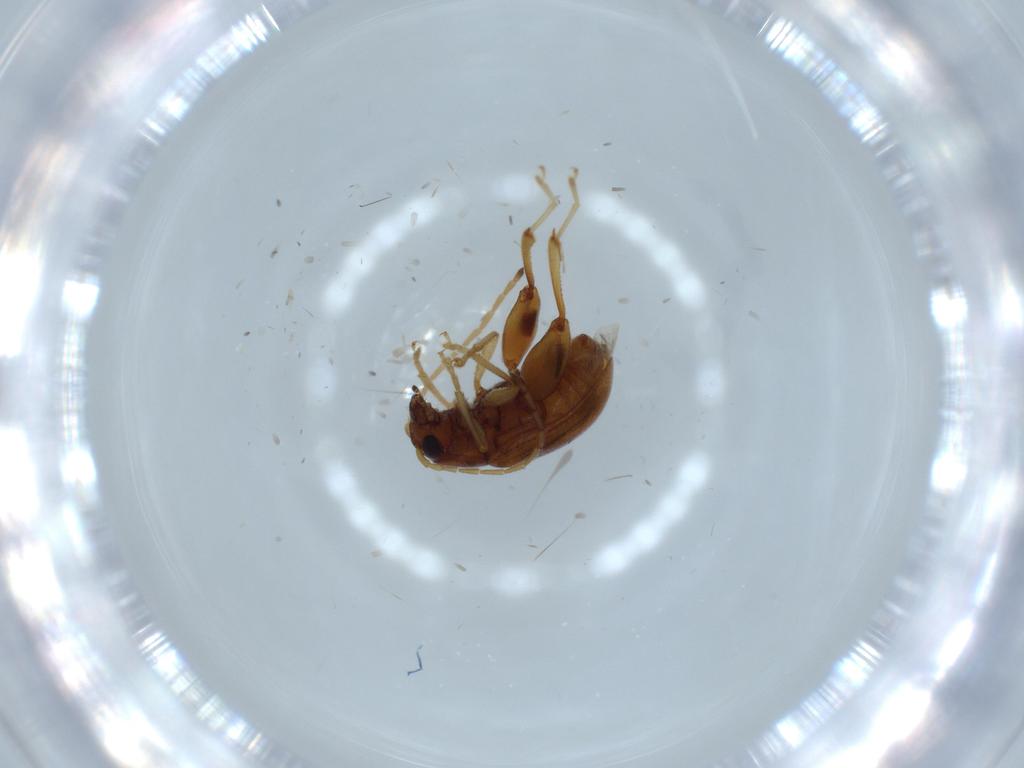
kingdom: Animalia
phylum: Arthropoda
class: Insecta
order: Coleoptera
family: Chrysomelidae
